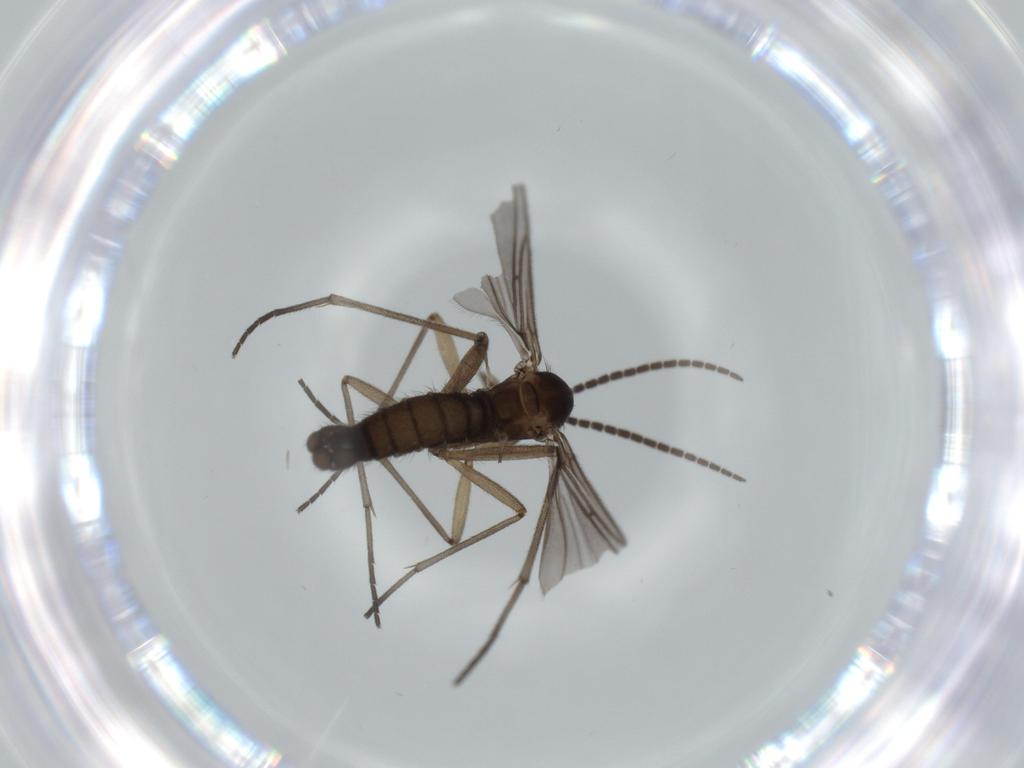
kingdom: Animalia
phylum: Arthropoda
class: Insecta
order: Diptera
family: Sciaridae
